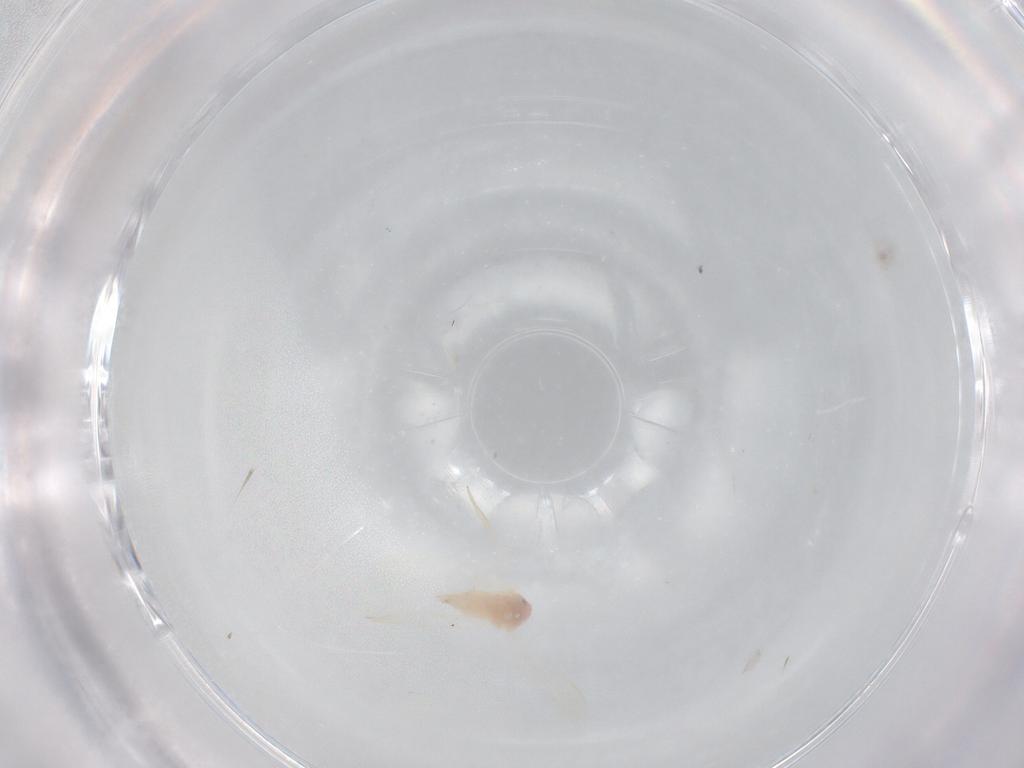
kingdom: Animalia
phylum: Arthropoda
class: Insecta
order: Hemiptera
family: Aleyrodidae
